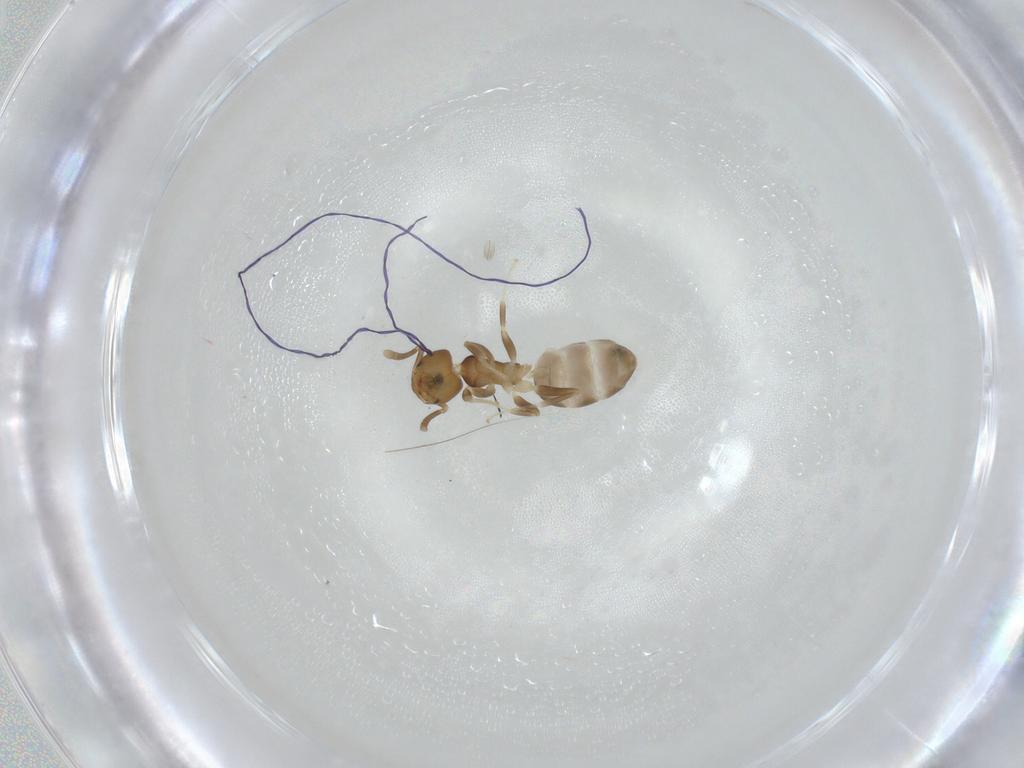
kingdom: Animalia
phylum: Arthropoda
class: Insecta
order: Hymenoptera
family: Formicidae
